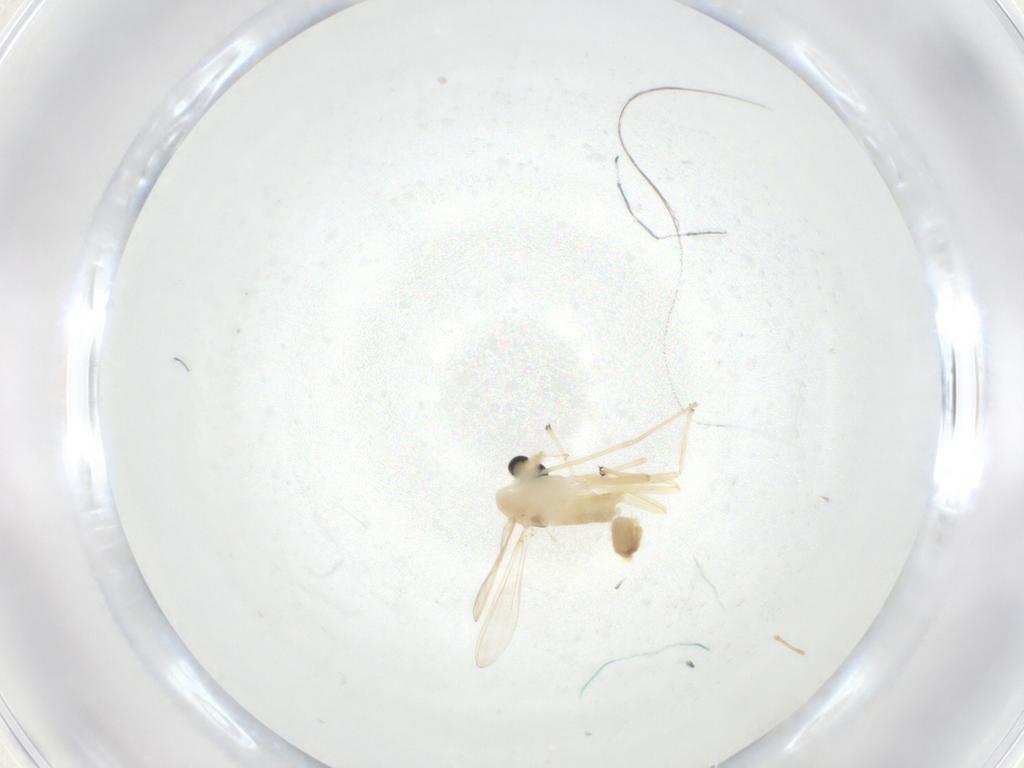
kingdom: Animalia
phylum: Arthropoda
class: Insecta
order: Diptera
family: Chironomidae
